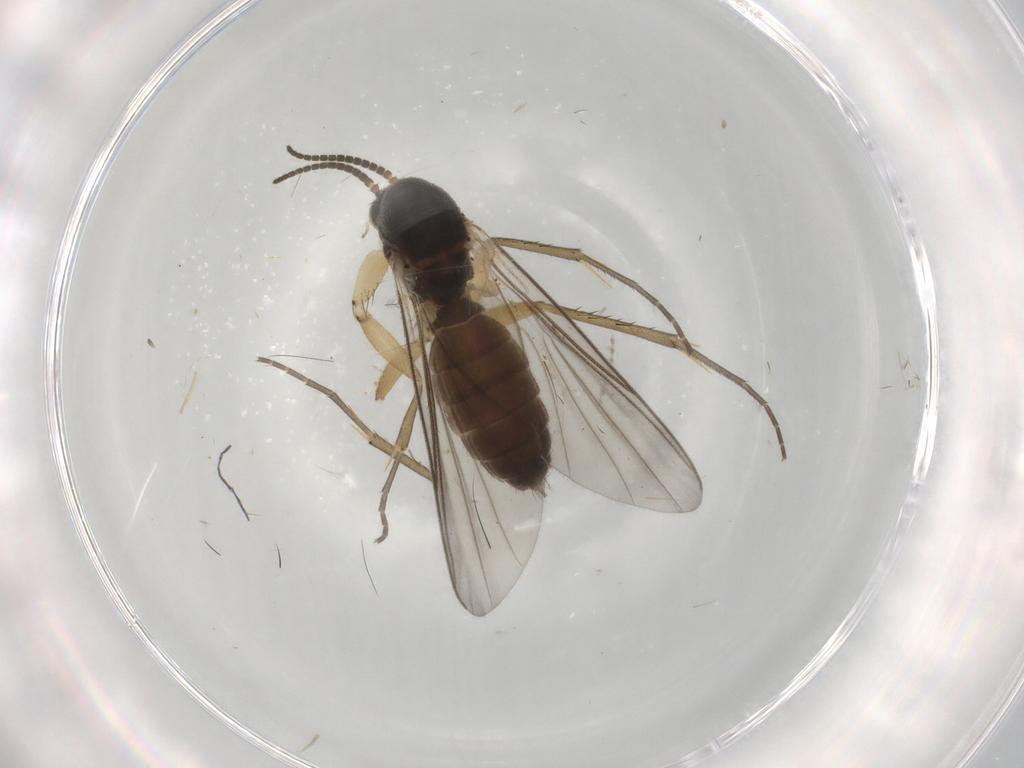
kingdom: Animalia
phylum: Arthropoda
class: Insecta
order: Diptera
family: Mycetophilidae
